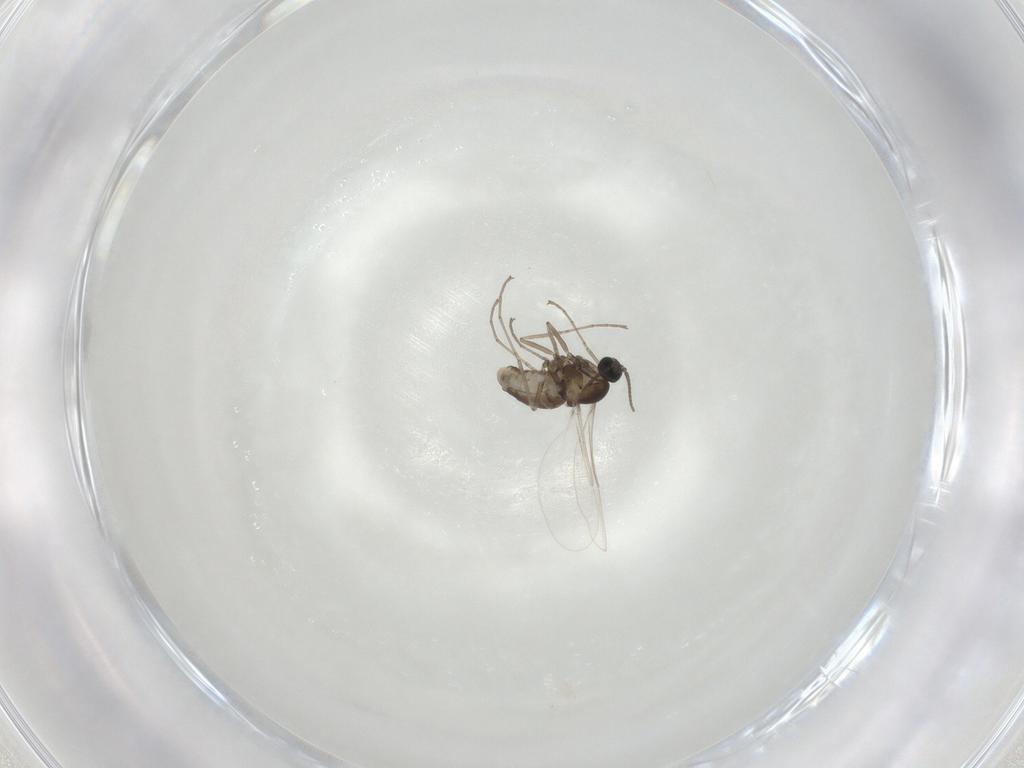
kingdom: Animalia
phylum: Arthropoda
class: Insecta
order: Diptera
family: Cecidomyiidae
